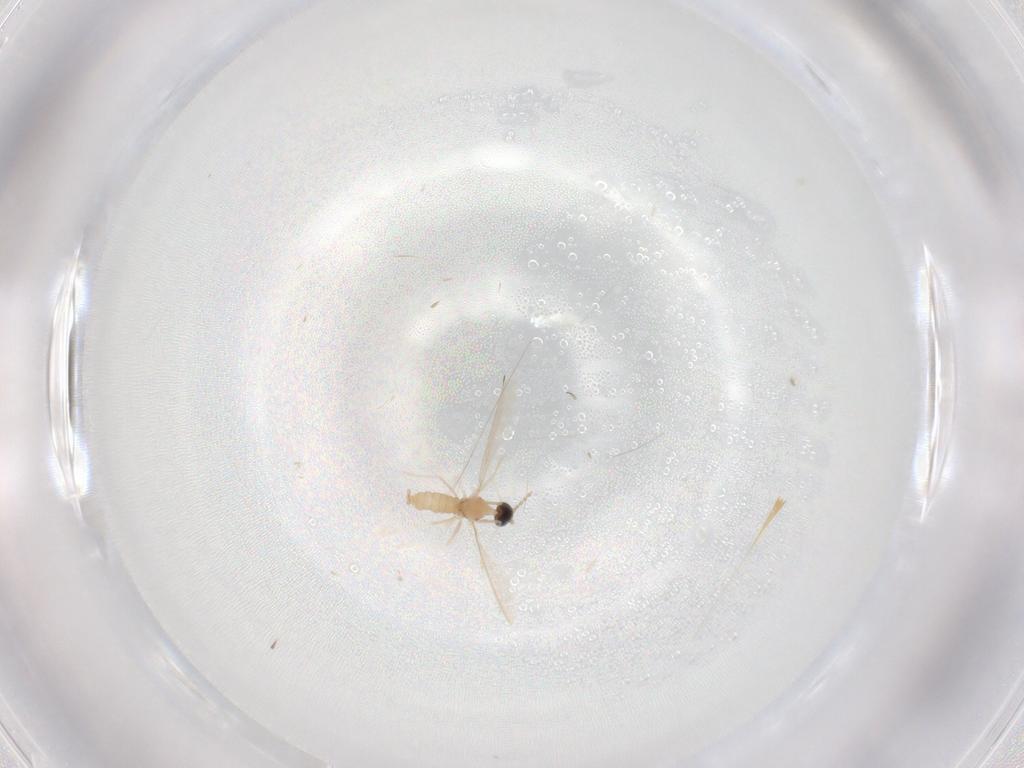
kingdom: Animalia
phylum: Arthropoda
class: Insecta
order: Diptera
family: Cecidomyiidae
